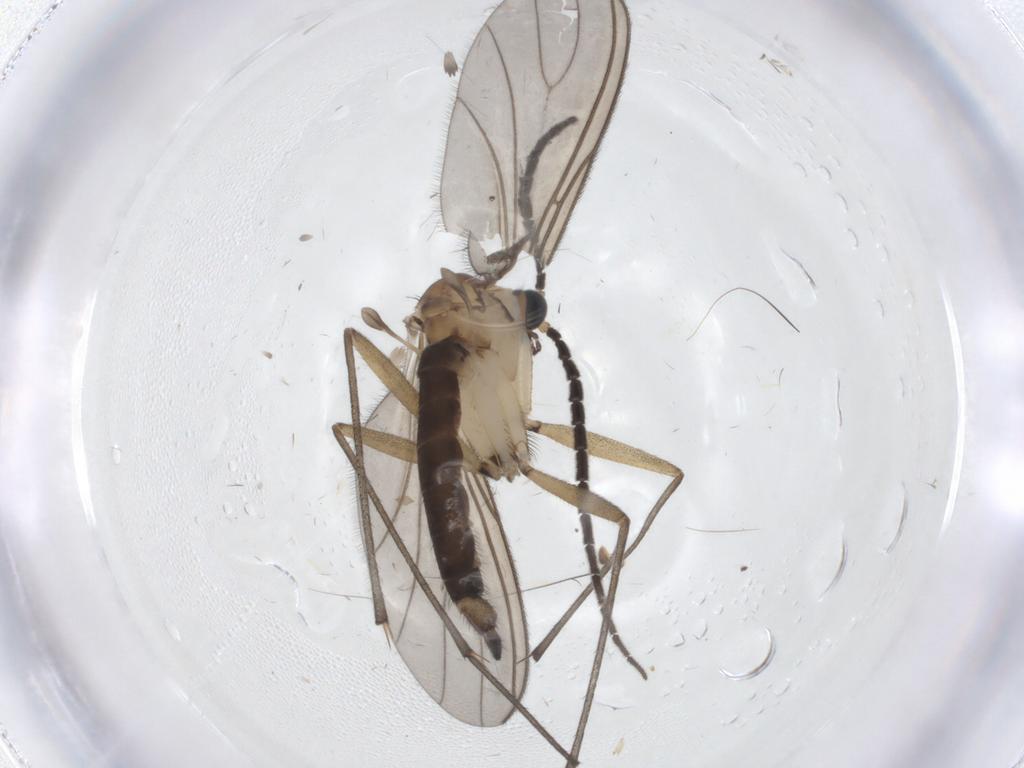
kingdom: Animalia
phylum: Arthropoda
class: Insecta
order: Diptera
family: Sciaridae
